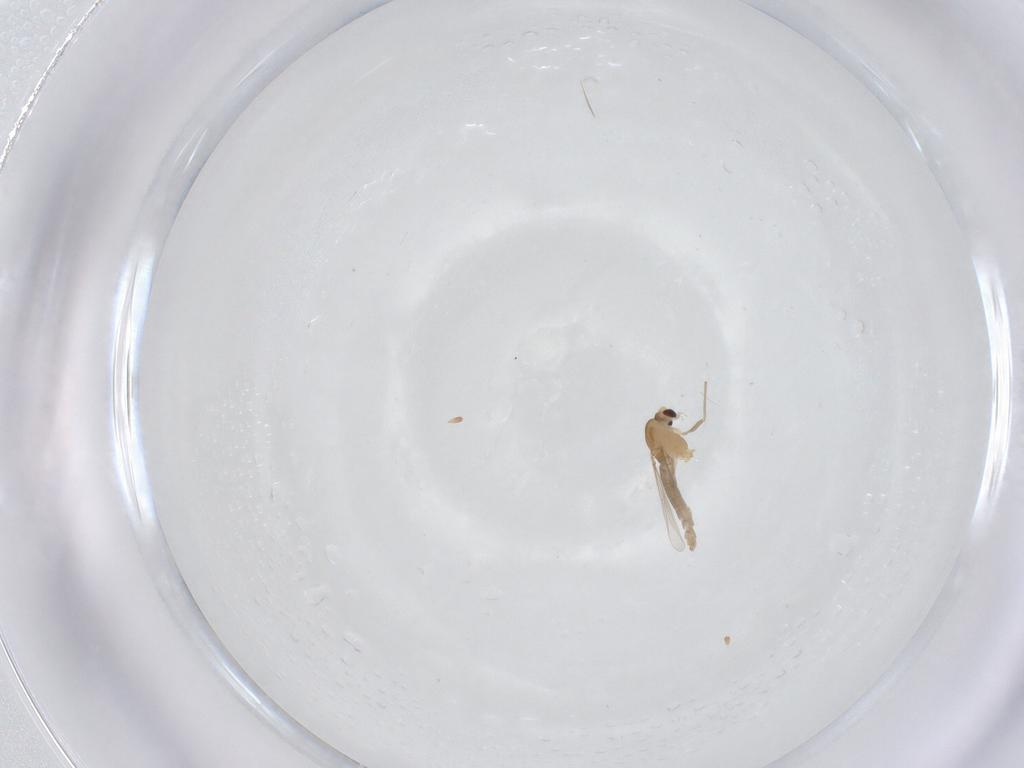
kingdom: Animalia
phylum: Arthropoda
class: Insecta
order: Diptera
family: Chironomidae
